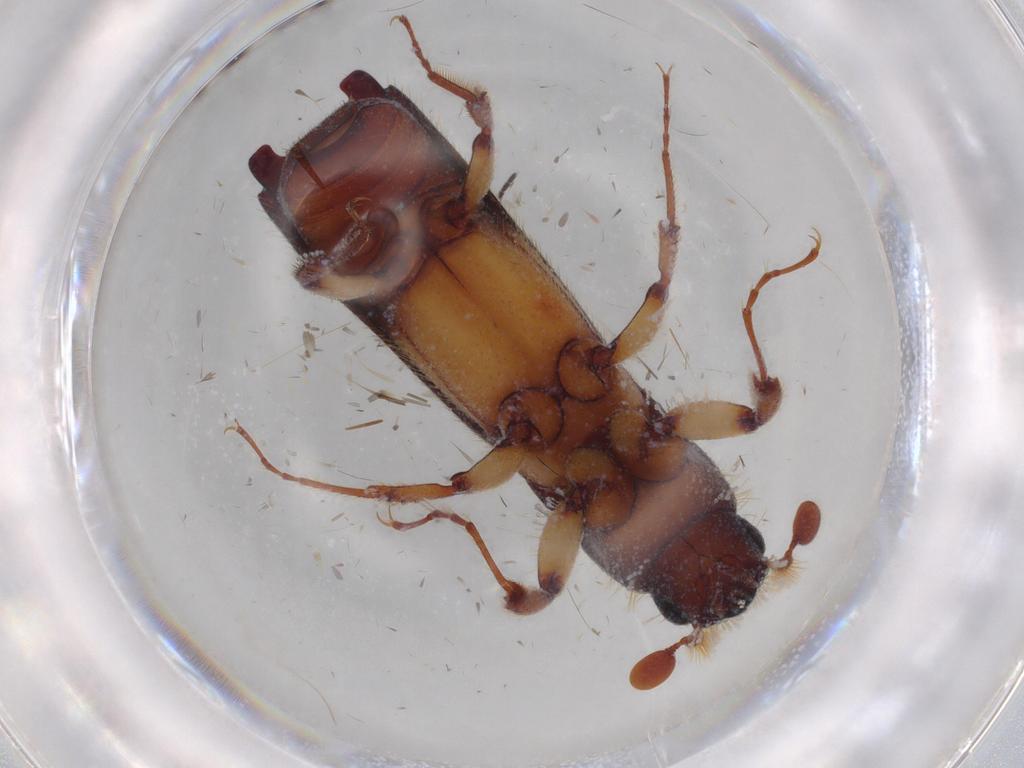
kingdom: Animalia
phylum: Arthropoda
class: Insecta
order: Coleoptera
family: Curculionidae
